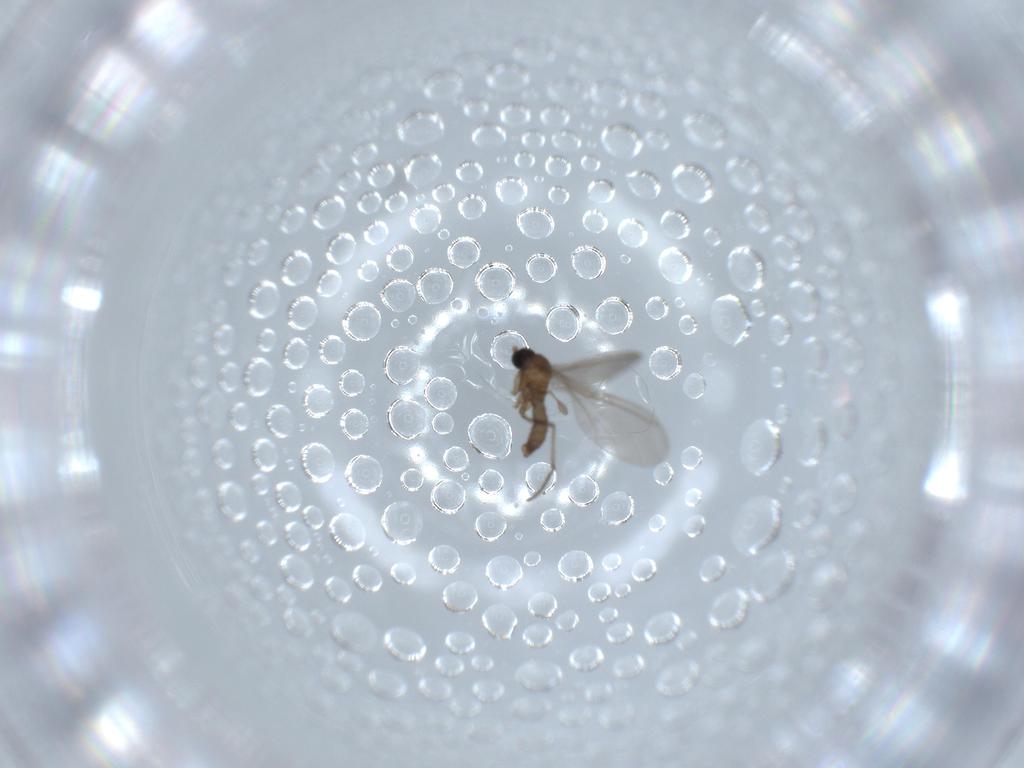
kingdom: Animalia
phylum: Arthropoda
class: Insecta
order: Diptera
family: Sciaridae
